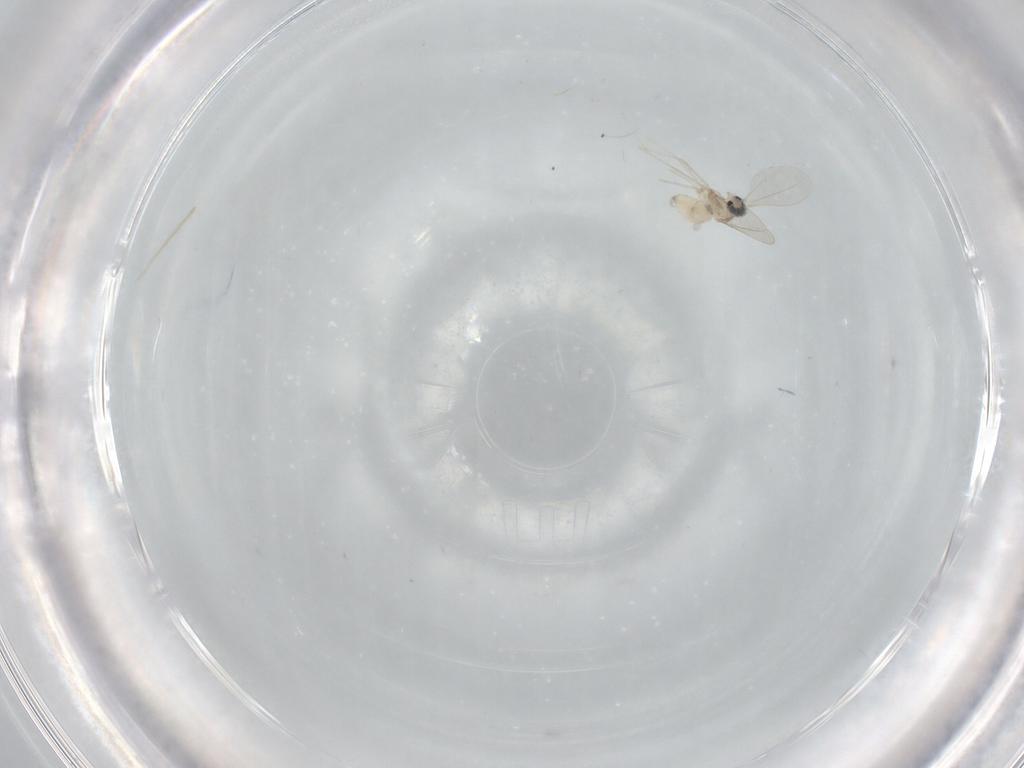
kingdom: Animalia
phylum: Arthropoda
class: Insecta
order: Diptera
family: Cecidomyiidae
